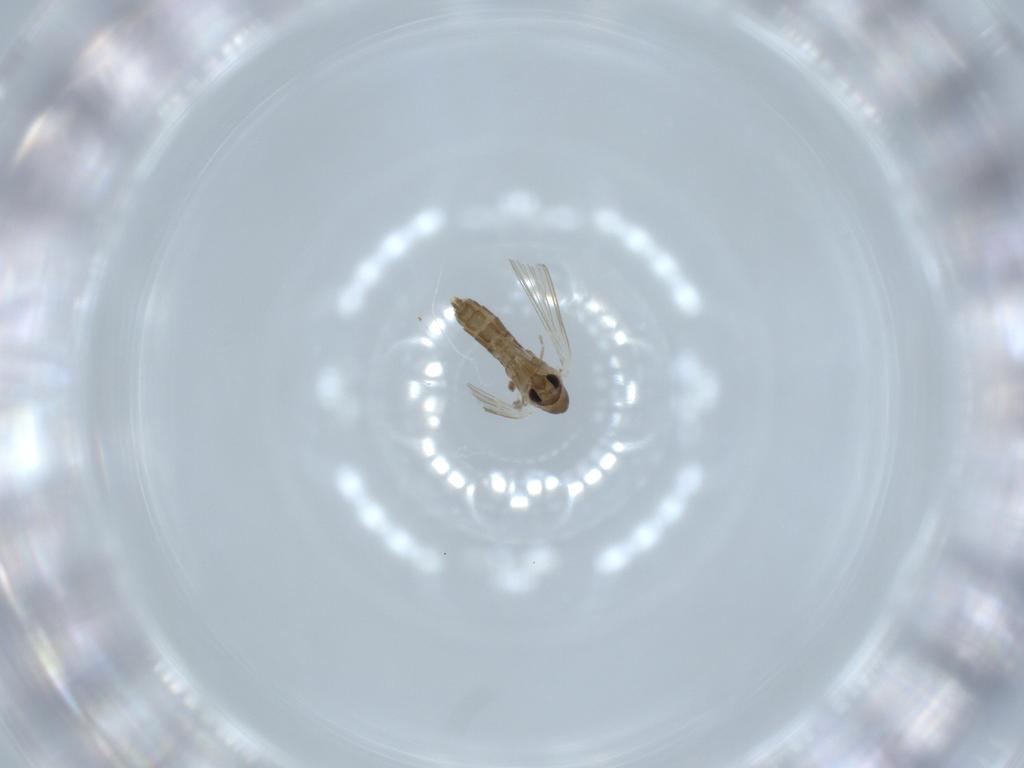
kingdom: Animalia
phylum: Arthropoda
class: Insecta
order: Diptera
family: Psychodidae
